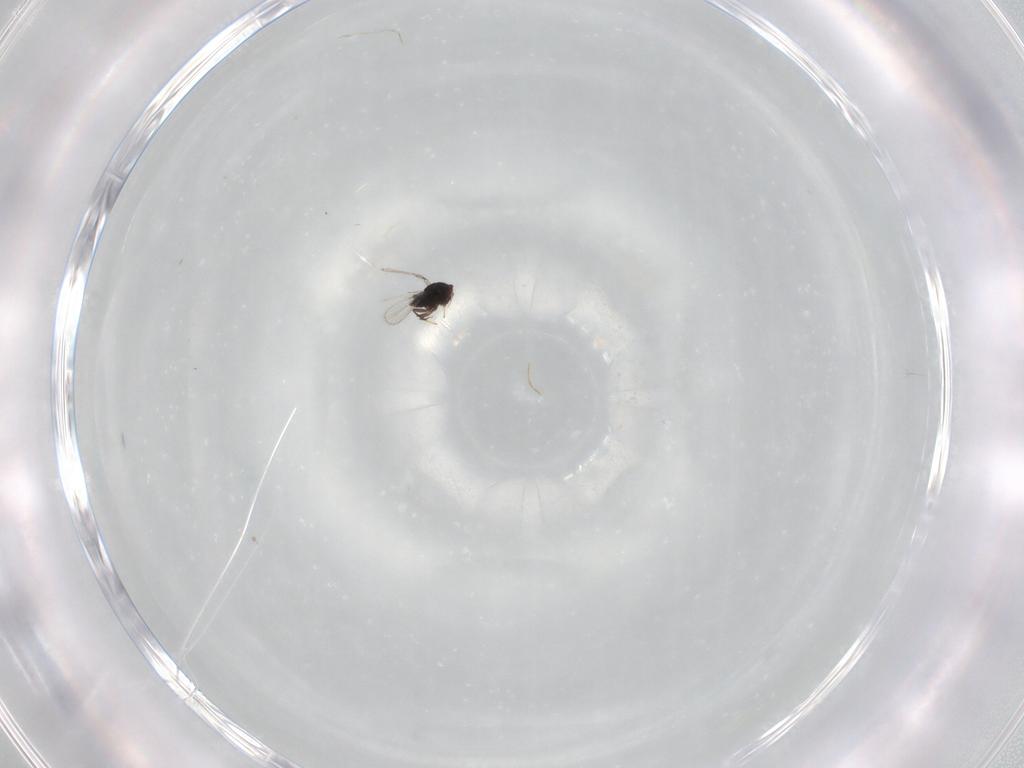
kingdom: Animalia
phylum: Arthropoda
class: Insecta
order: Hymenoptera
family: Trichogrammatidae
